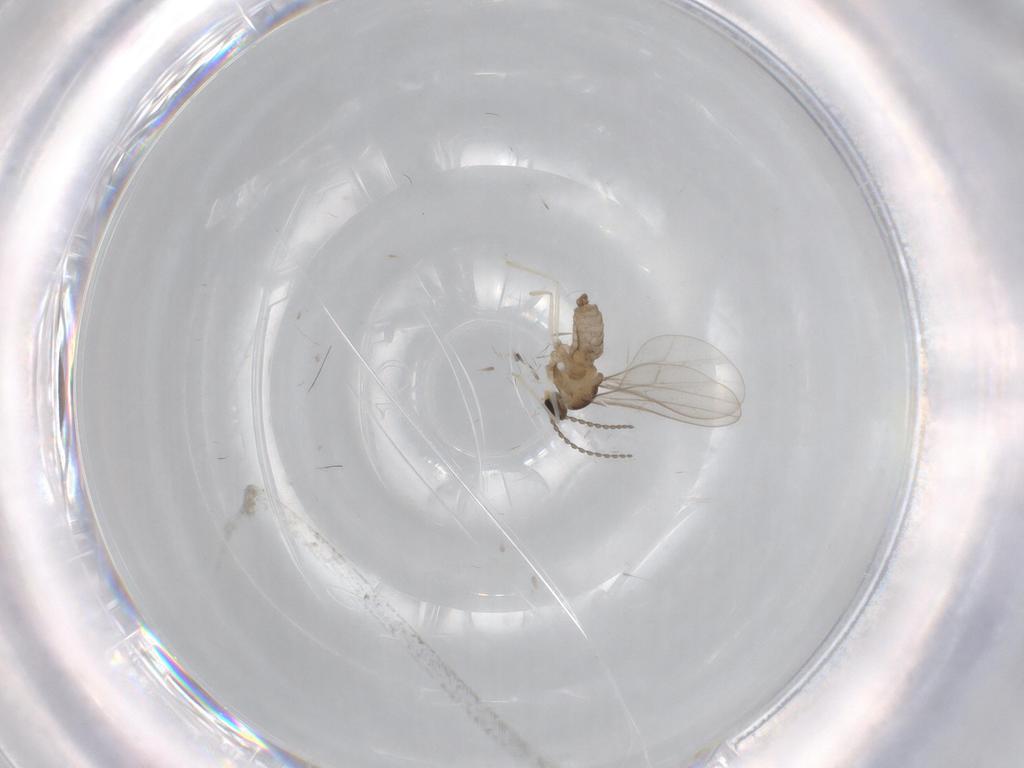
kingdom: Animalia
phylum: Arthropoda
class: Insecta
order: Diptera
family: Cecidomyiidae
